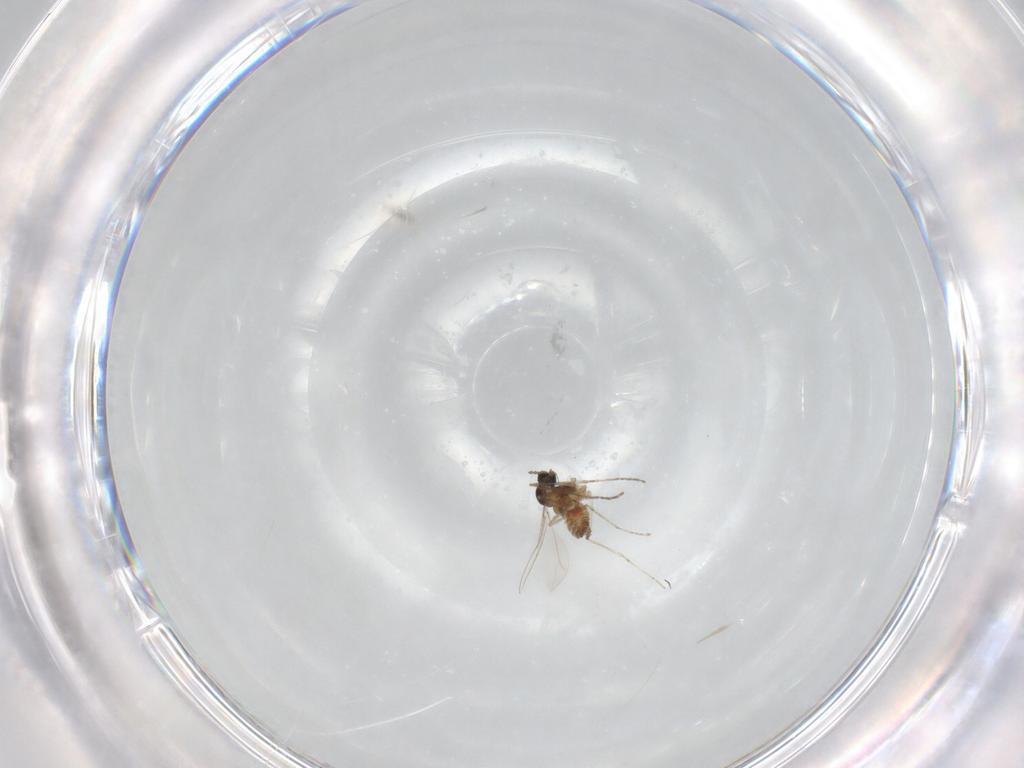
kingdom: Animalia
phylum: Arthropoda
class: Insecta
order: Diptera
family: Cecidomyiidae
